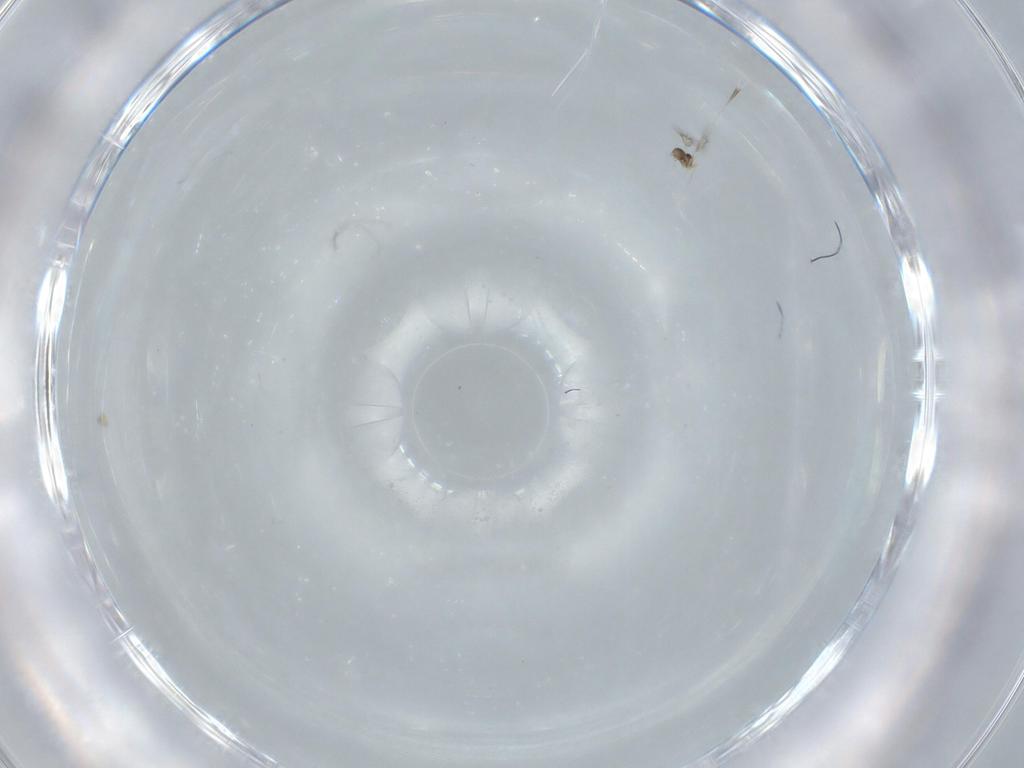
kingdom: Animalia
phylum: Arthropoda
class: Insecta
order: Hymenoptera
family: Mymarommatidae
